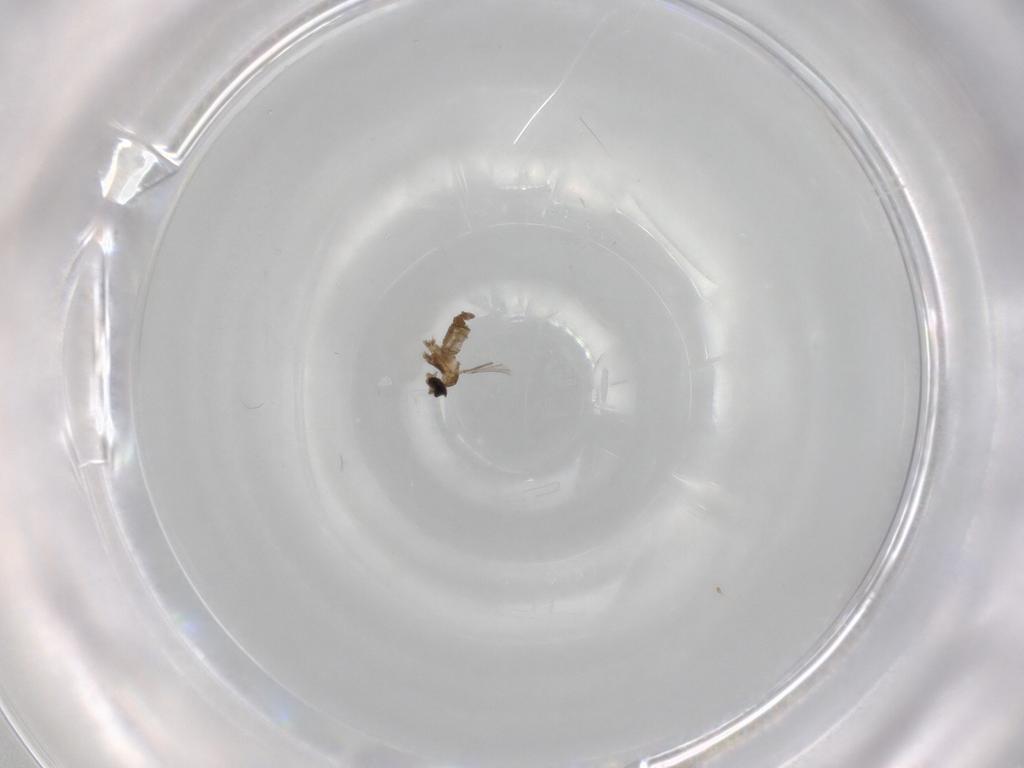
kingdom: Animalia
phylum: Arthropoda
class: Insecta
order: Diptera
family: Cecidomyiidae
